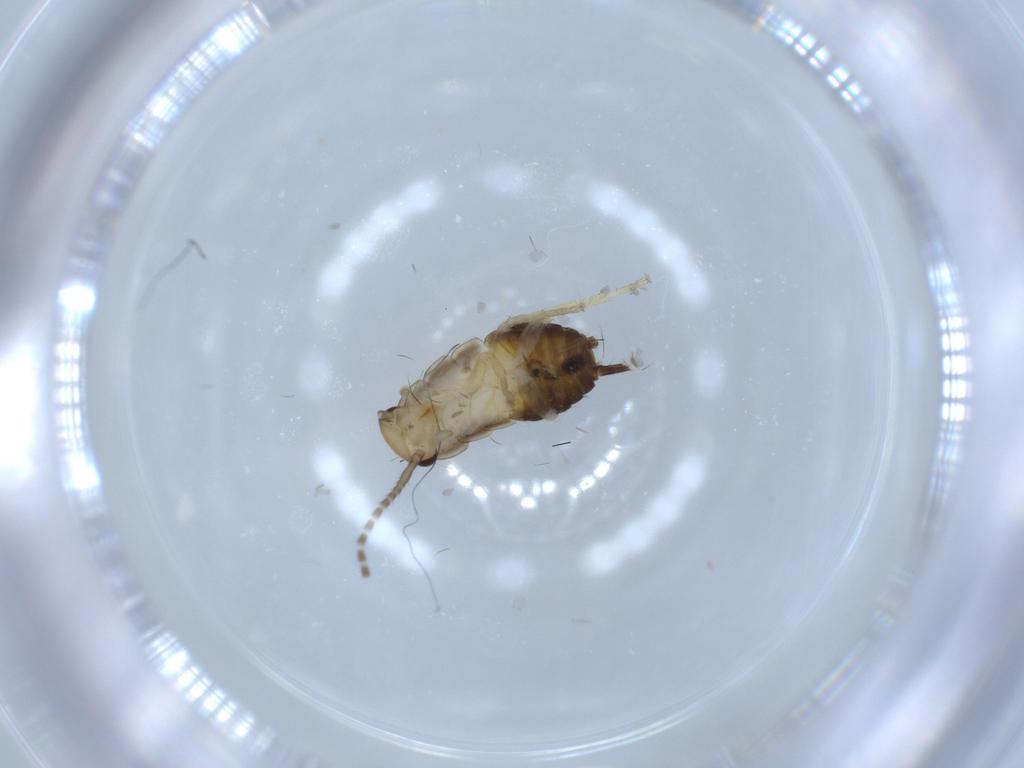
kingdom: Animalia
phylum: Arthropoda
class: Insecta
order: Blattodea
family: Ectobiidae
